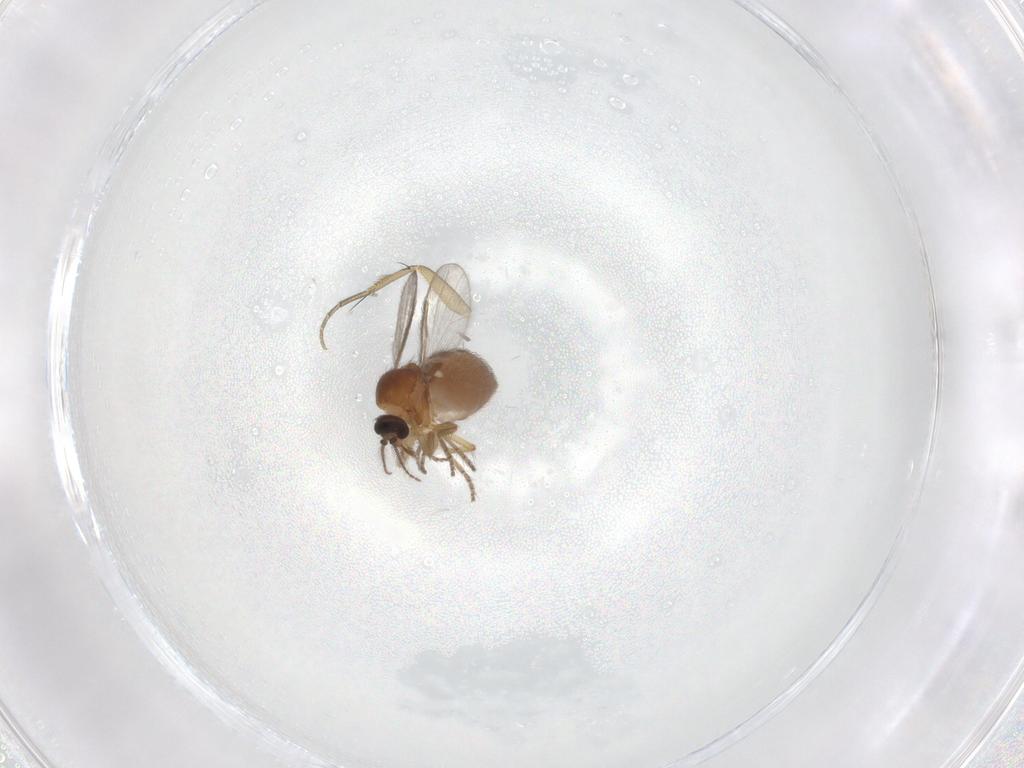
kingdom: Animalia
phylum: Arthropoda
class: Insecta
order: Diptera
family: Ceratopogonidae
